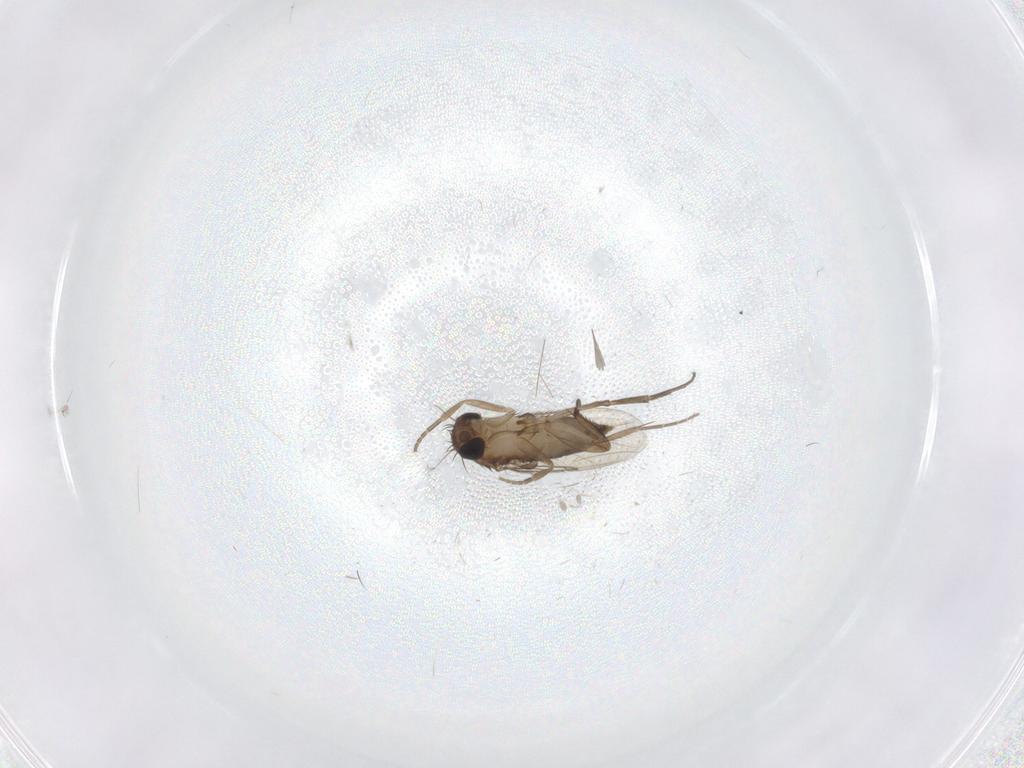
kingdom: Animalia
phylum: Arthropoda
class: Insecta
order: Diptera
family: Phoridae
